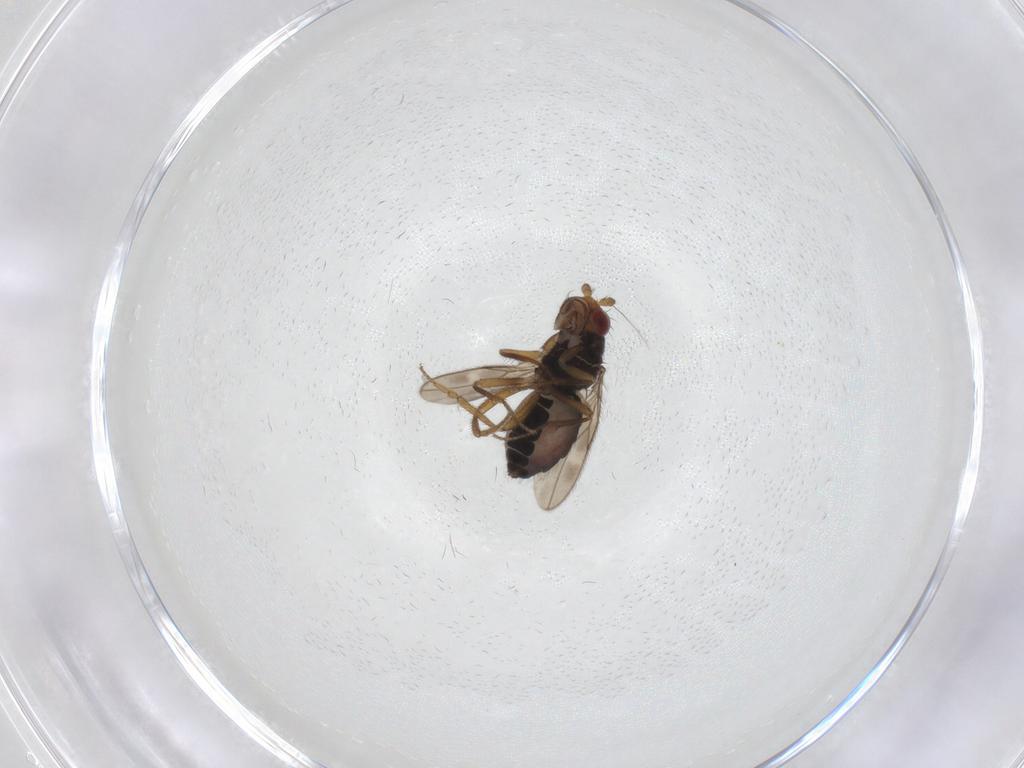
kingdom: Animalia
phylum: Arthropoda
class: Insecta
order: Diptera
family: Sphaeroceridae
